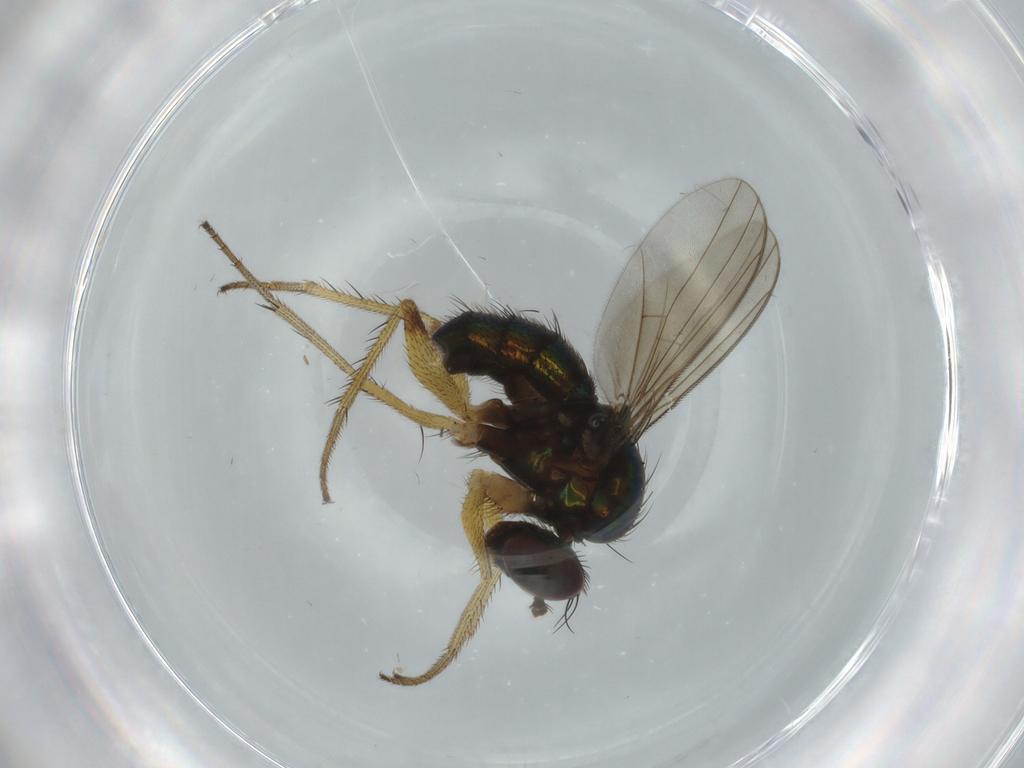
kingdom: Animalia
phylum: Arthropoda
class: Insecta
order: Diptera
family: Dolichopodidae
